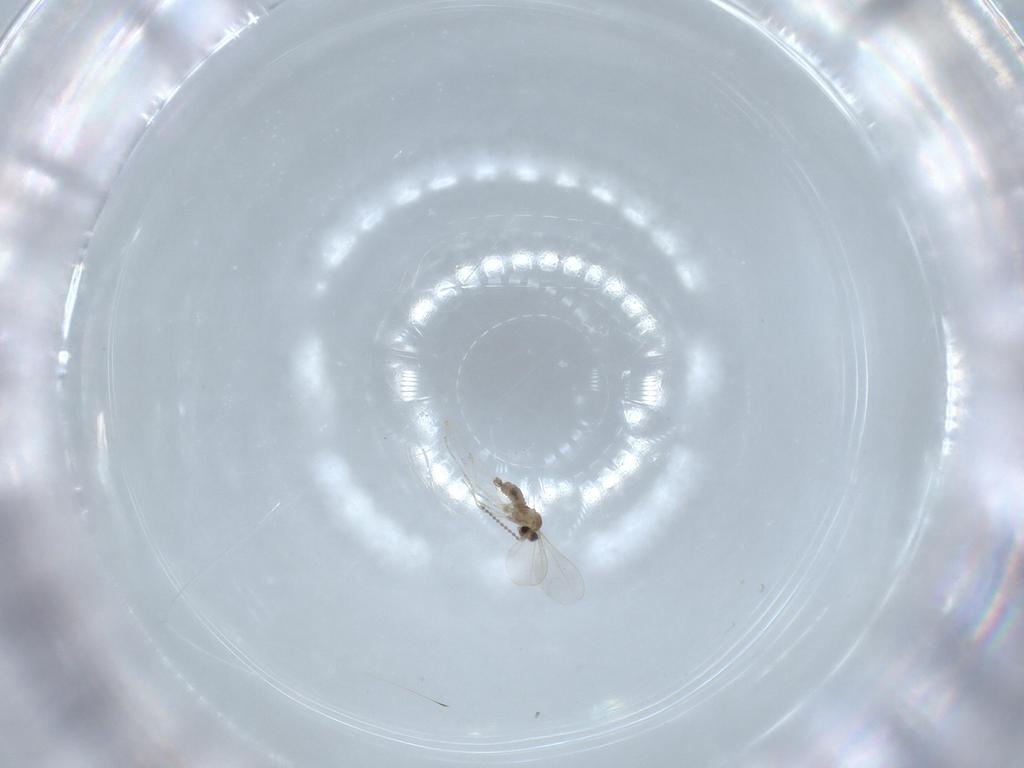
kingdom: Animalia
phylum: Arthropoda
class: Insecta
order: Diptera
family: Cecidomyiidae
